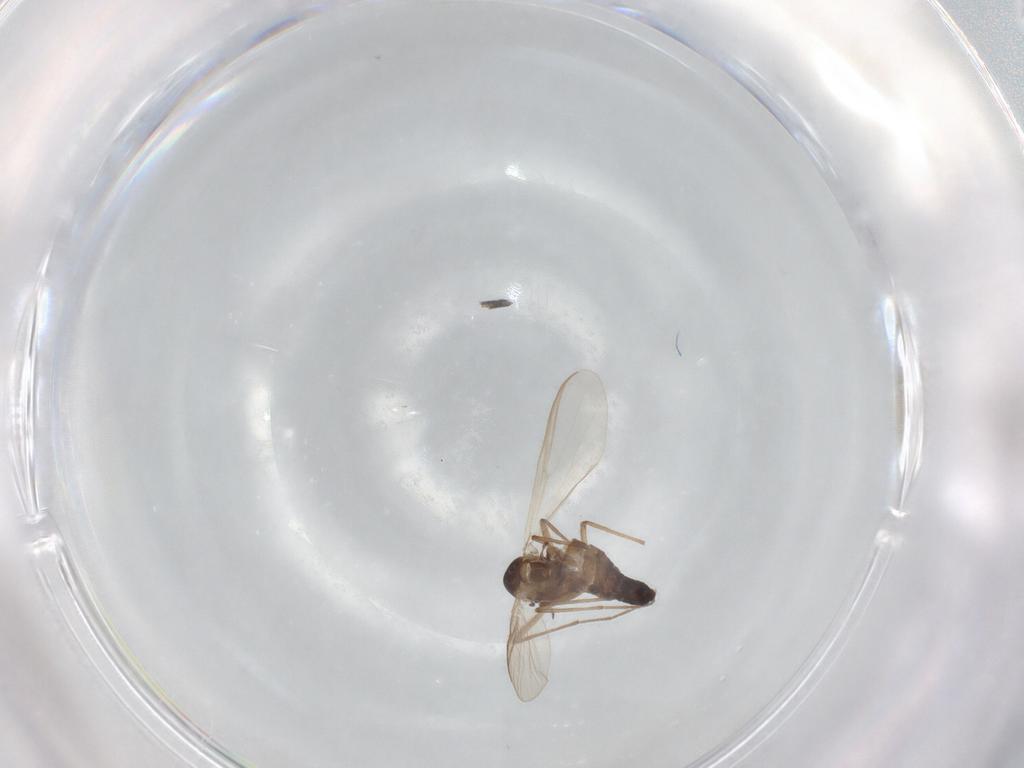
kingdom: Animalia
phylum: Arthropoda
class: Insecta
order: Diptera
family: Chironomidae
